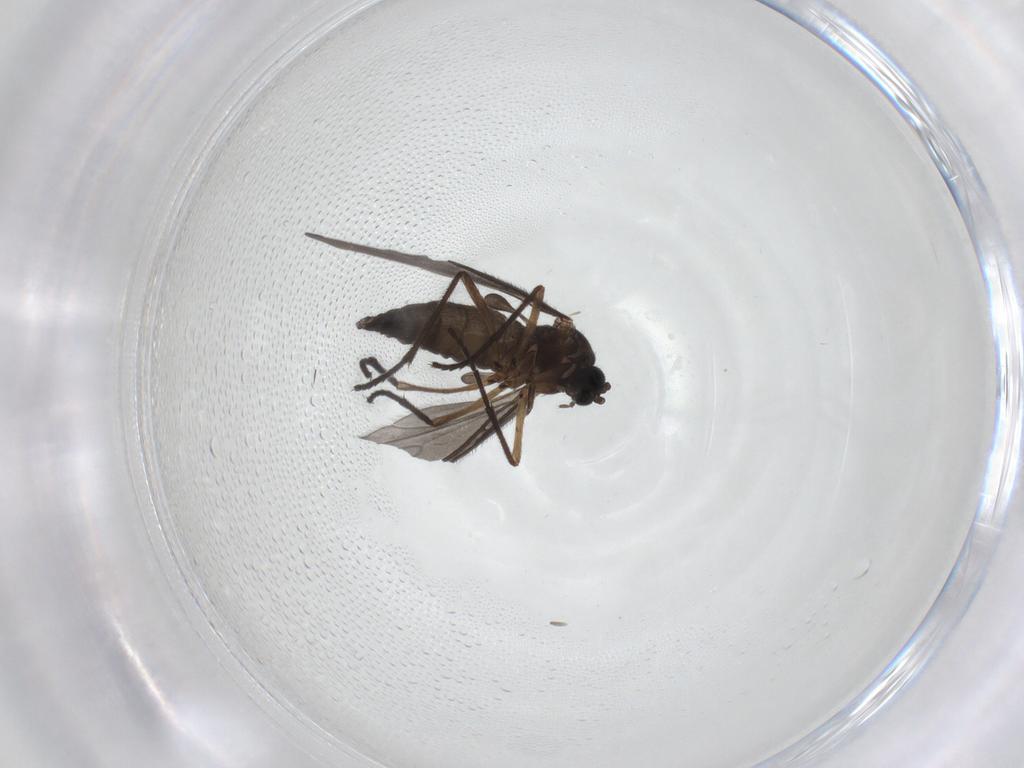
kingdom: Animalia
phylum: Arthropoda
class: Insecta
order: Diptera
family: Sciaridae
